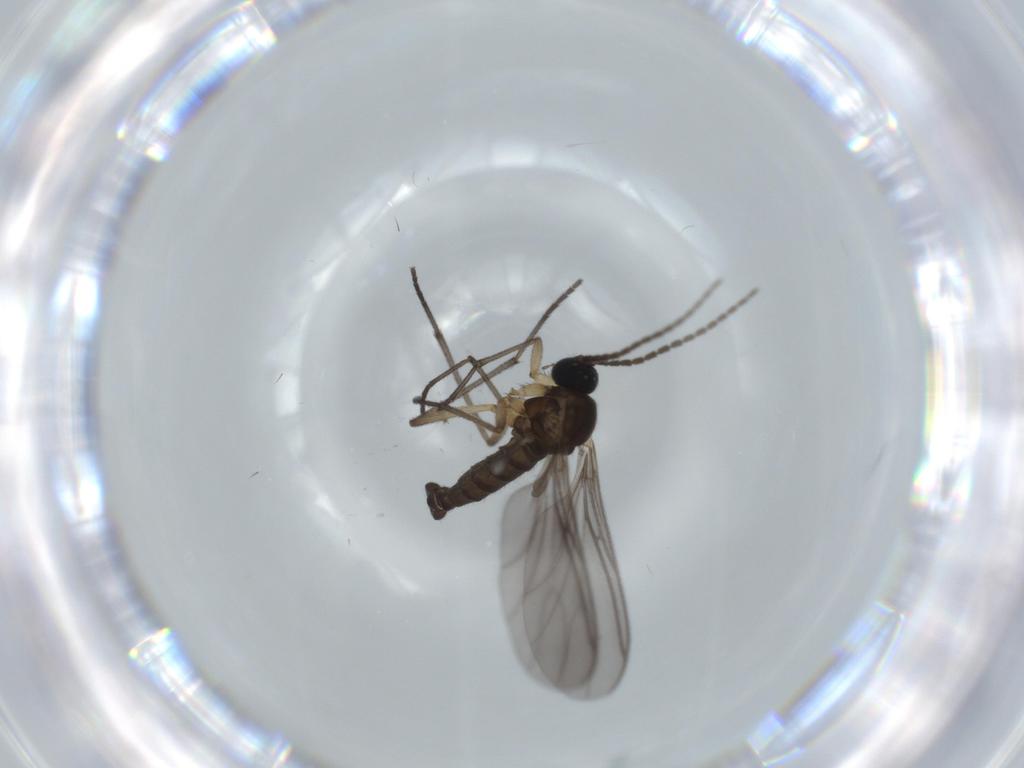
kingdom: Animalia
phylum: Arthropoda
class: Insecta
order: Diptera
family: Sciaridae
